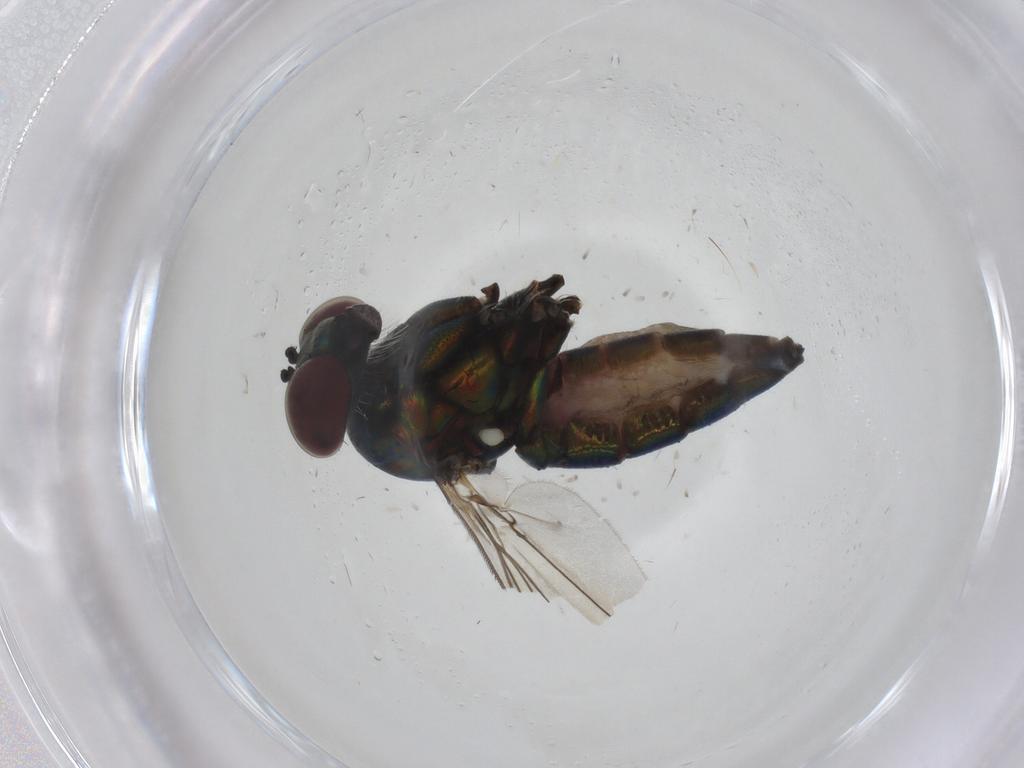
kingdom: Animalia
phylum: Arthropoda
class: Insecta
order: Diptera
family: Dolichopodidae
